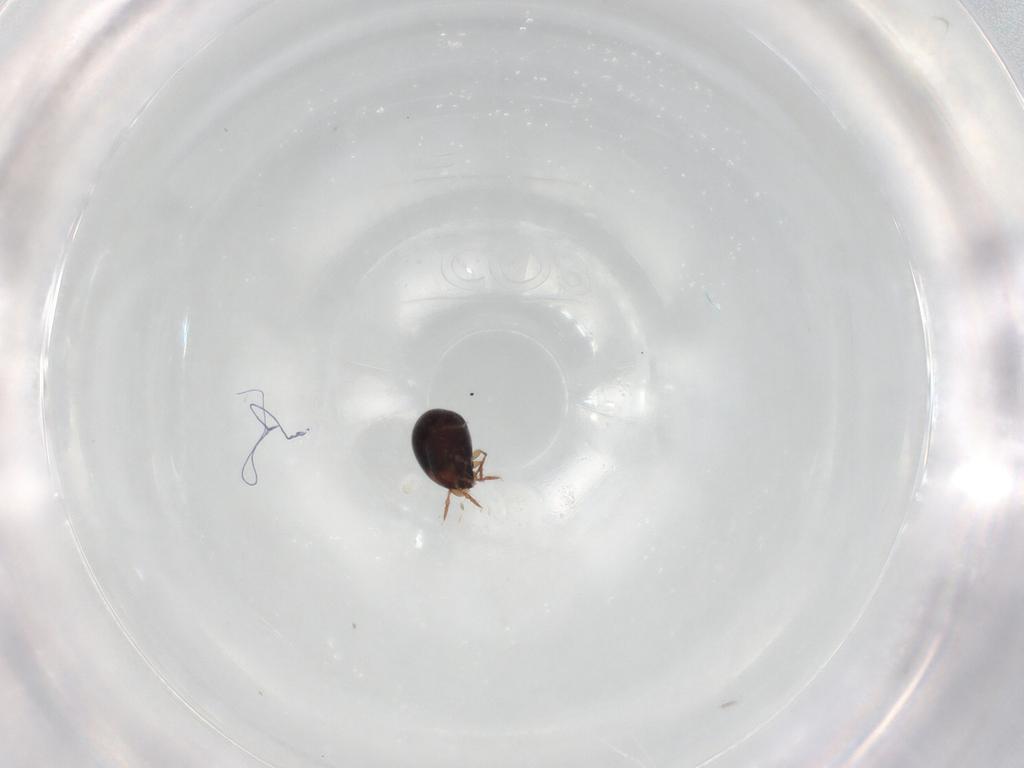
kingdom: Animalia
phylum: Arthropoda
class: Arachnida
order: Sarcoptiformes
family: Ceratozetidae
